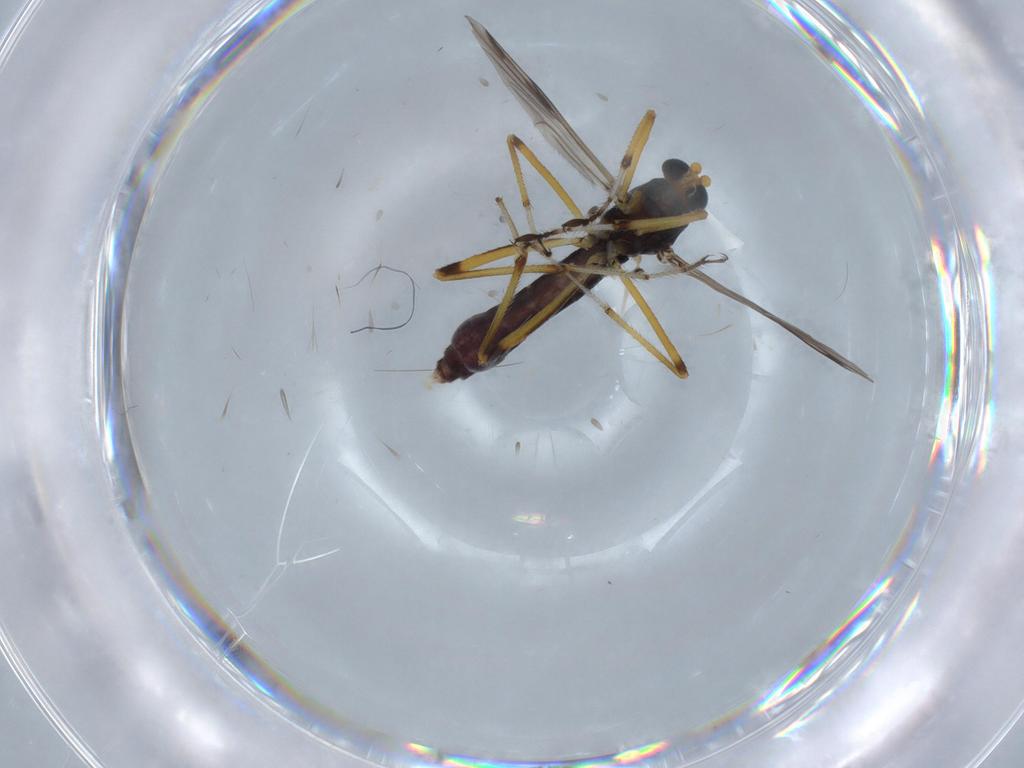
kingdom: Animalia
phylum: Arthropoda
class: Insecta
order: Diptera
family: Ceratopogonidae
